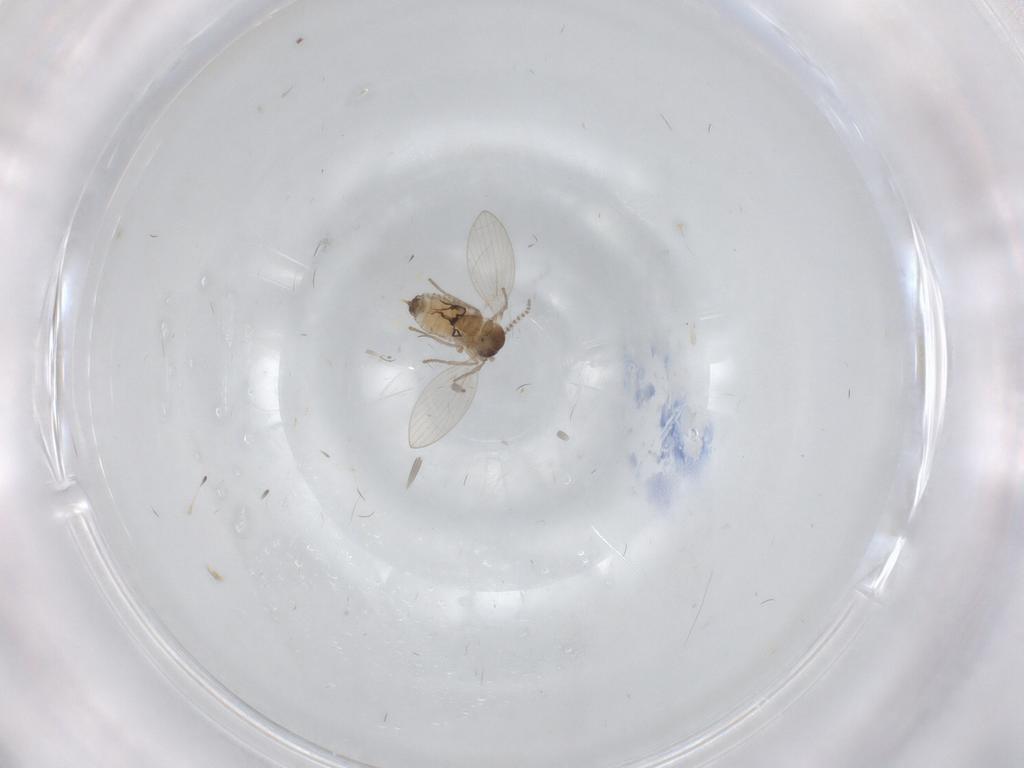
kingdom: Animalia
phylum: Arthropoda
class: Insecta
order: Diptera
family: Psychodidae
